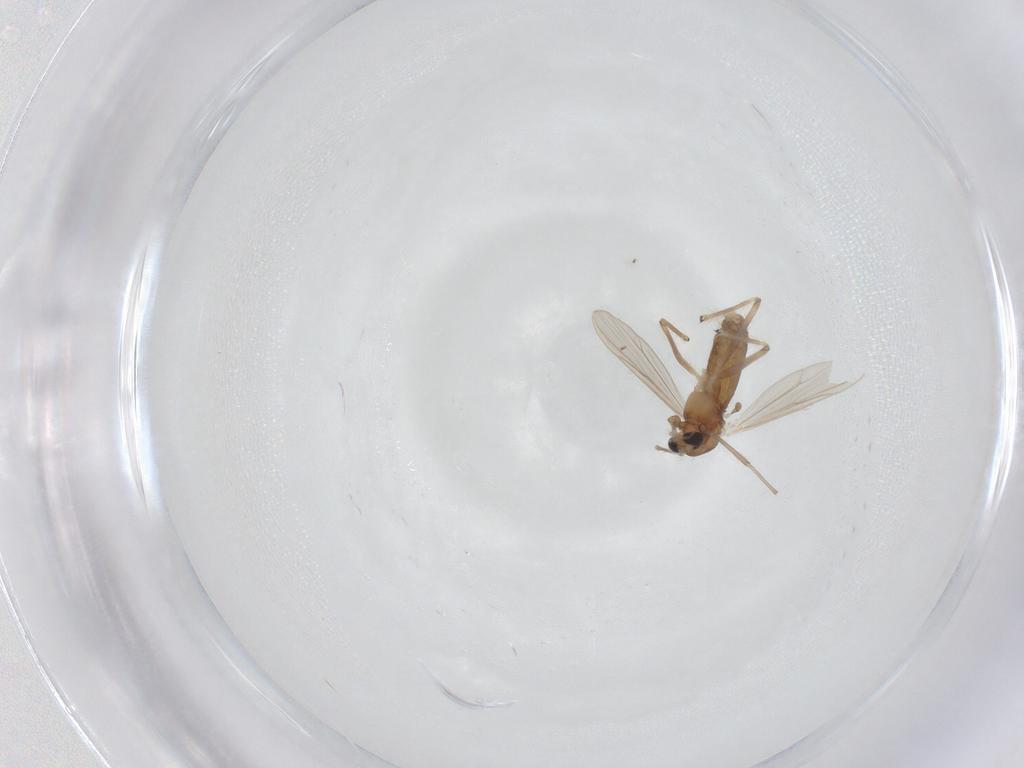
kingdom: Animalia
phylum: Arthropoda
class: Insecta
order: Diptera
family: Chironomidae
